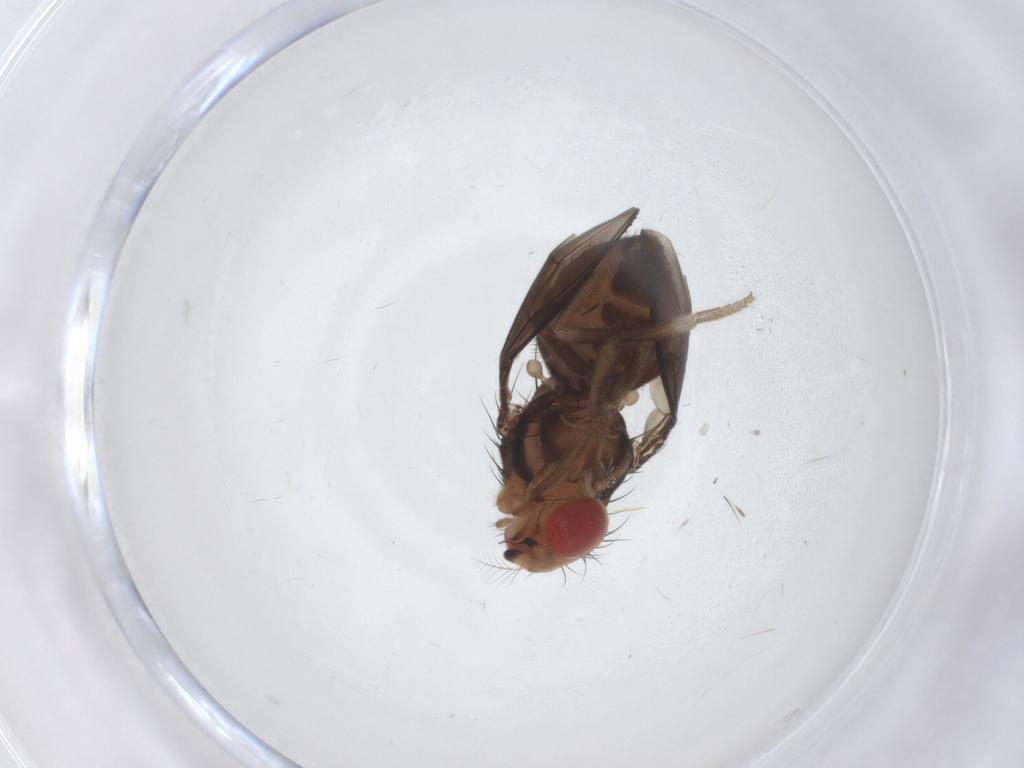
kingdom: Animalia
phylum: Arthropoda
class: Insecta
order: Diptera
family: Drosophilidae
